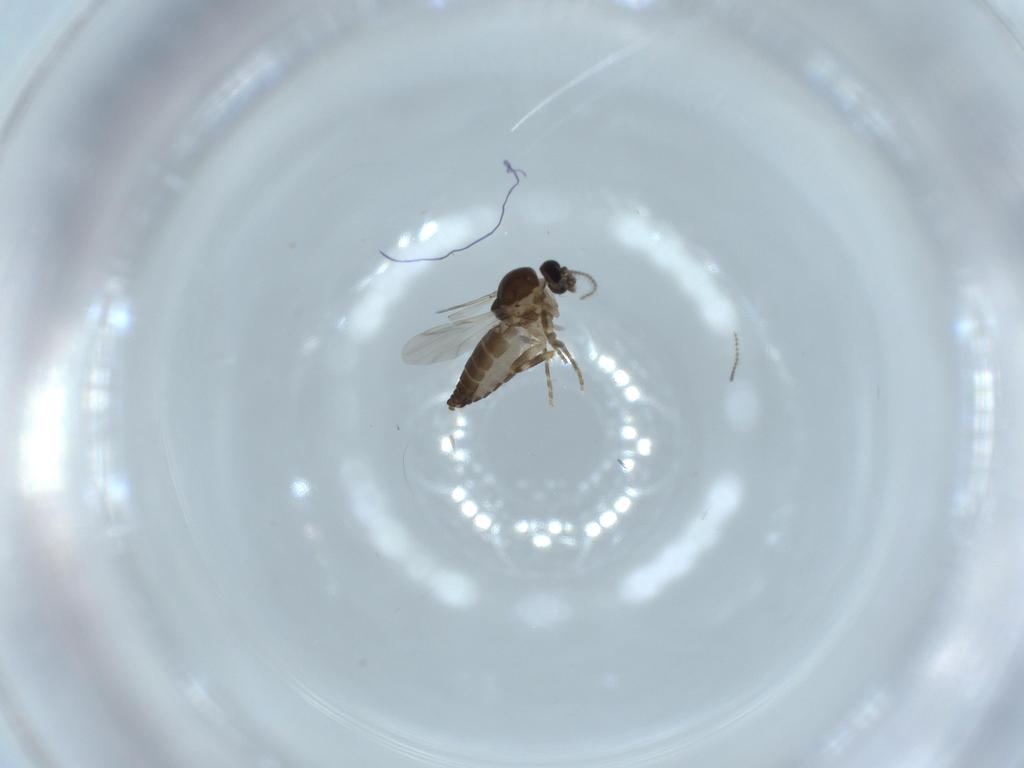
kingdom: Animalia
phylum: Arthropoda
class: Insecta
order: Diptera
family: Ceratopogonidae
